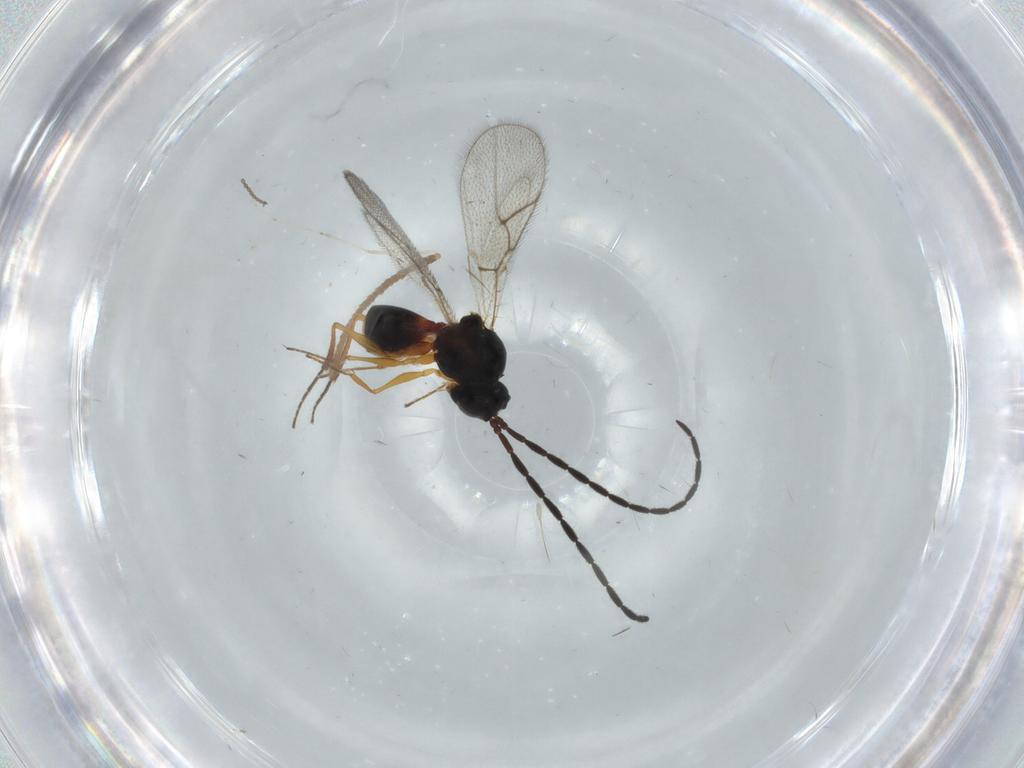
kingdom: Animalia
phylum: Arthropoda
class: Insecta
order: Hymenoptera
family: Figitidae
